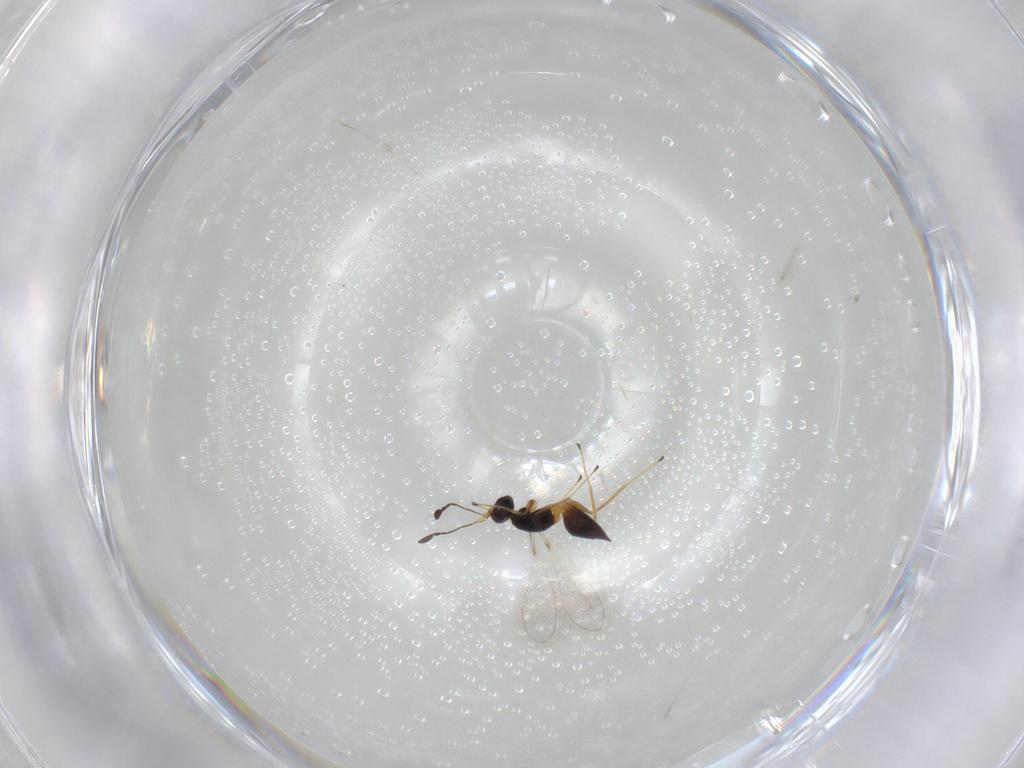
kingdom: Animalia
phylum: Arthropoda
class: Insecta
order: Hymenoptera
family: Mymaridae
